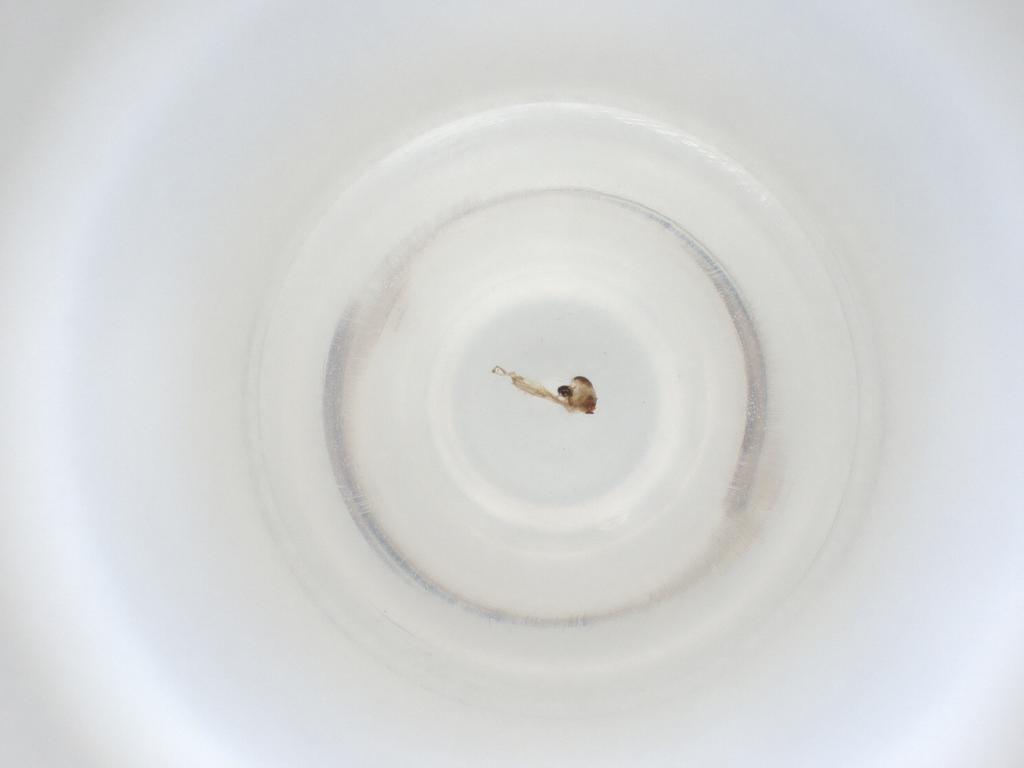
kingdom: Animalia
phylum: Arthropoda
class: Insecta
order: Diptera
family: Cecidomyiidae
